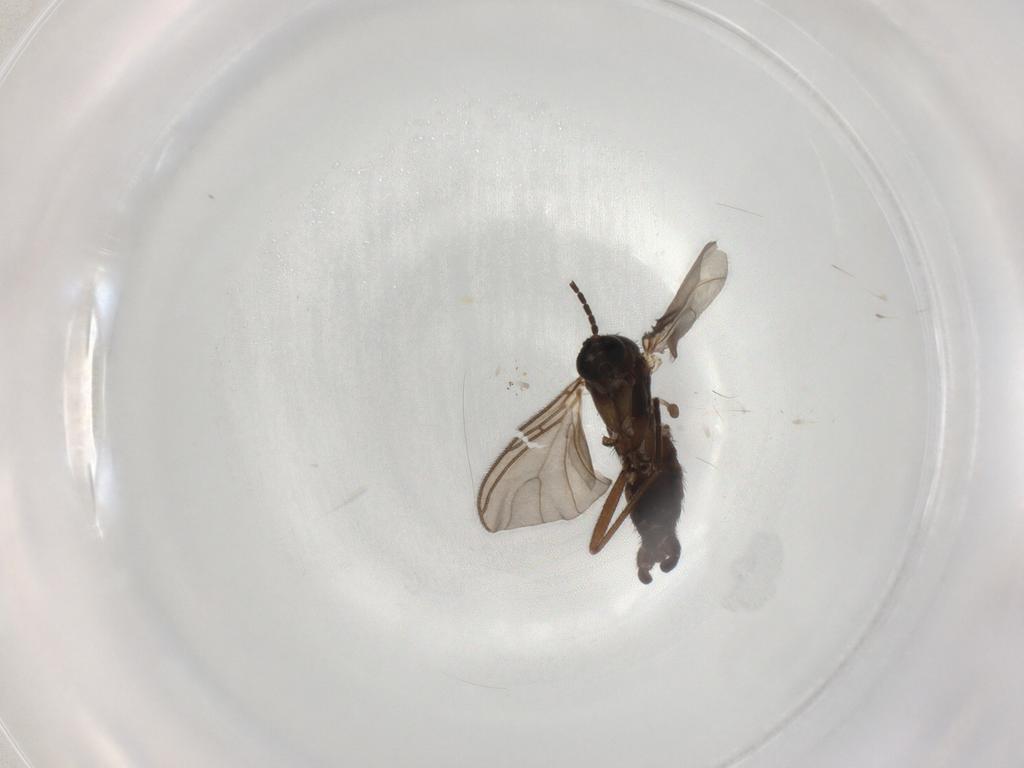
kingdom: Animalia
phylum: Arthropoda
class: Insecta
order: Diptera
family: Sciaridae
